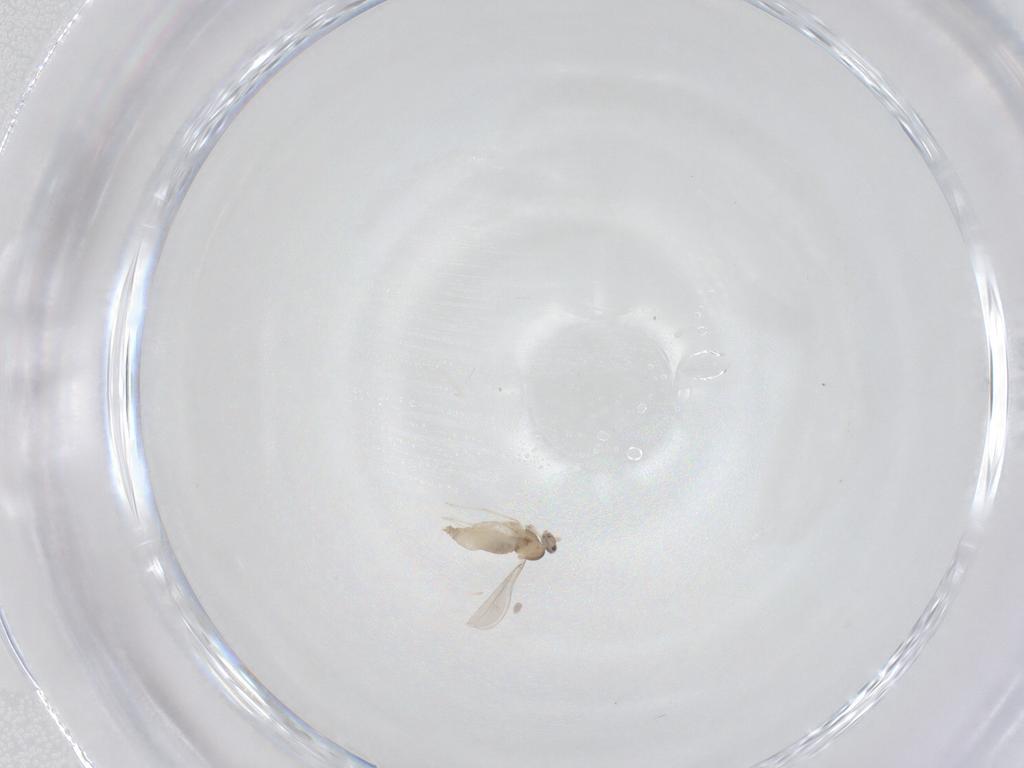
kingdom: Animalia
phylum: Arthropoda
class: Insecta
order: Diptera
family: Cecidomyiidae
